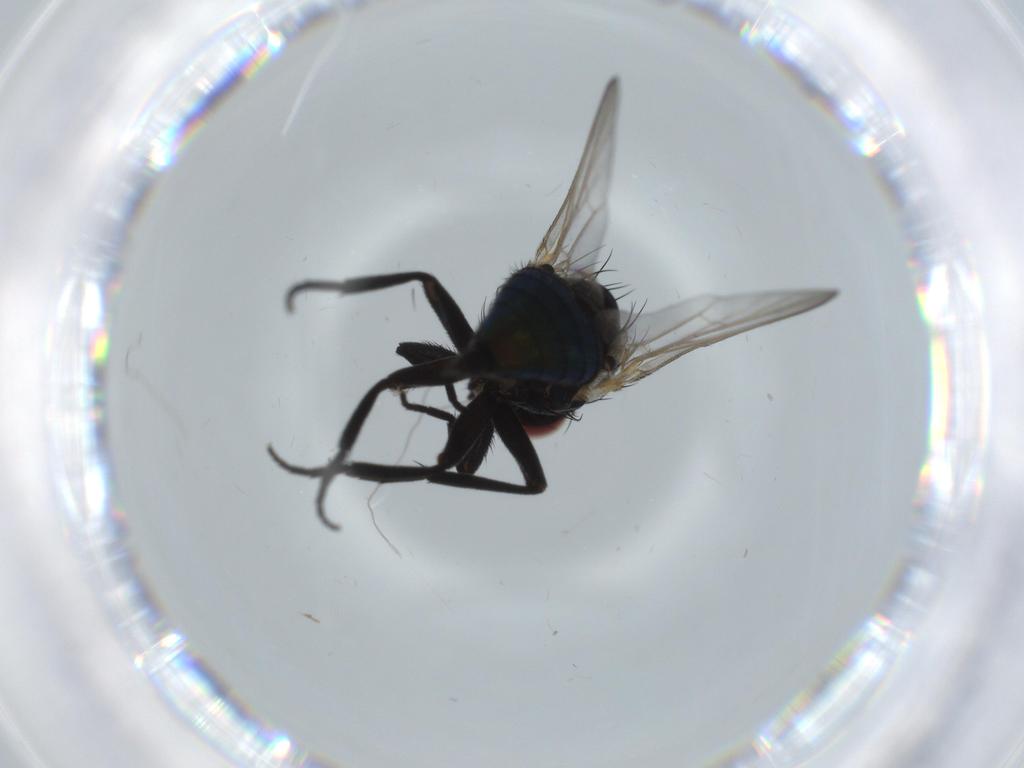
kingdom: Animalia
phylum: Arthropoda
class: Insecta
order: Diptera
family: Agromyzidae
